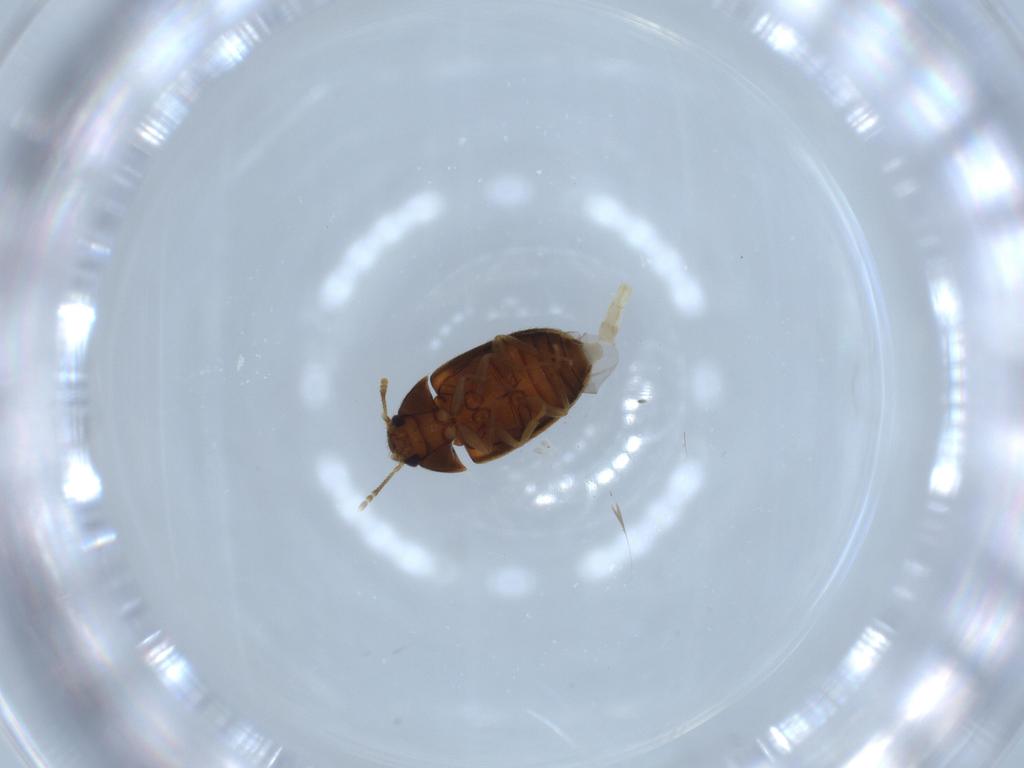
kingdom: Animalia
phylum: Arthropoda
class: Insecta
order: Coleoptera
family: Mycetophagidae
